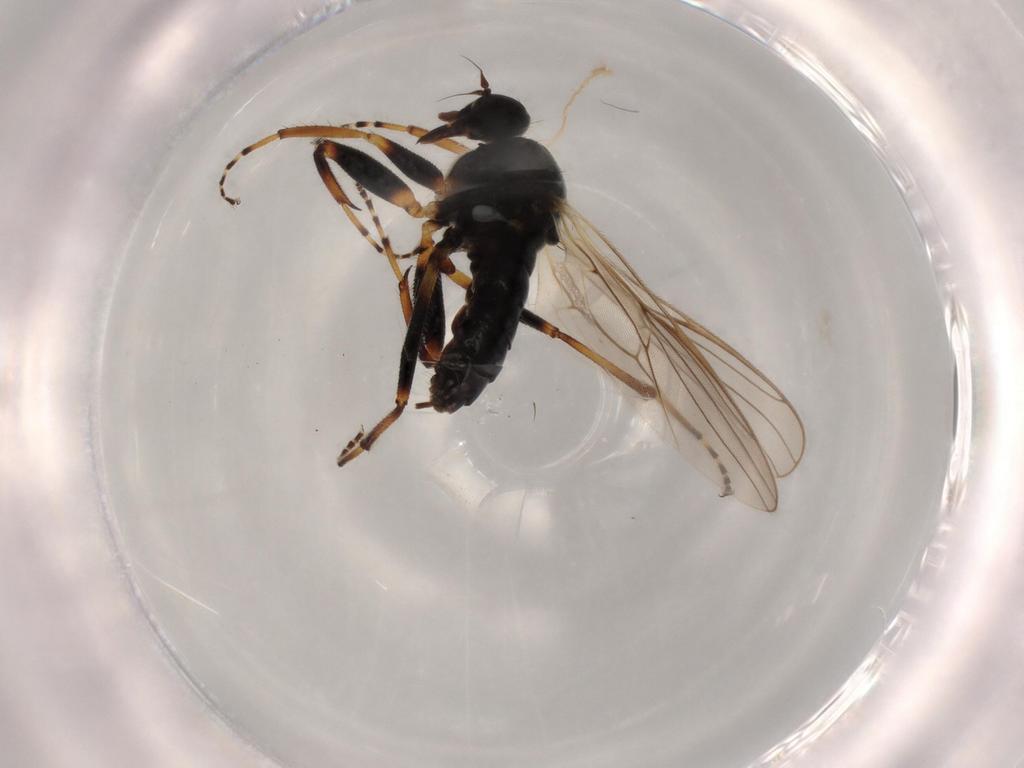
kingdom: Animalia
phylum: Arthropoda
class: Insecta
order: Diptera
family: Hybotidae
